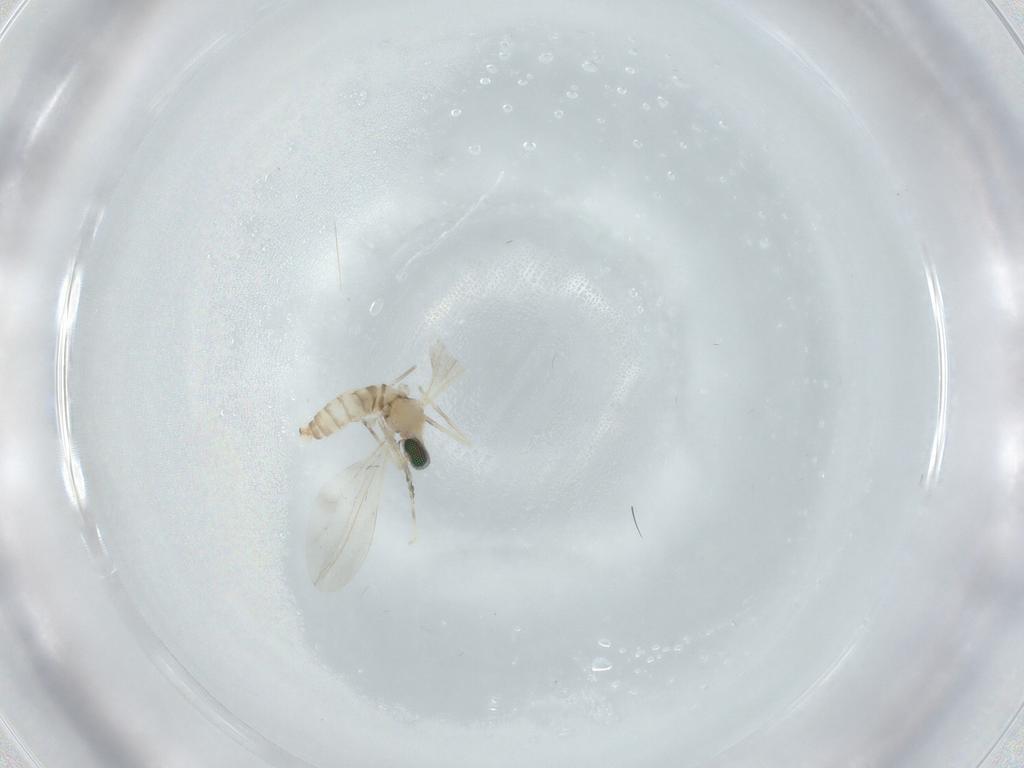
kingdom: Animalia
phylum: Arthropoda
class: Insecta
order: Diptera
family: Cecidomyiidae
